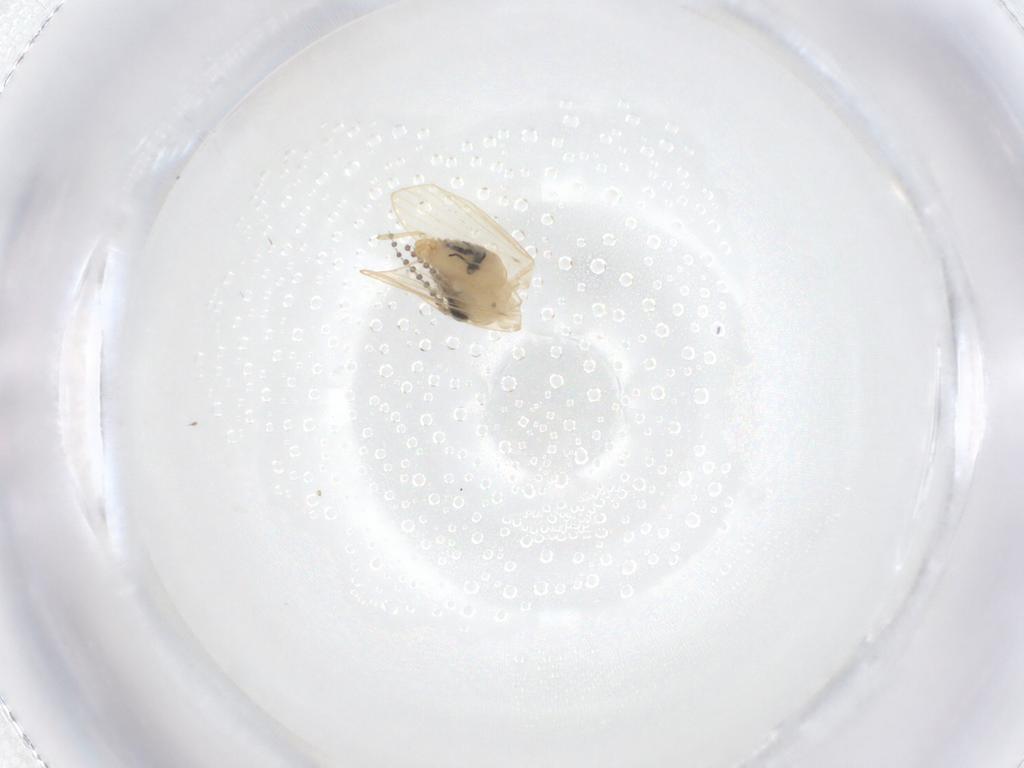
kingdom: Animalia
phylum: Arthropoda
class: Insecta
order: Diptera
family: Psychodidae
